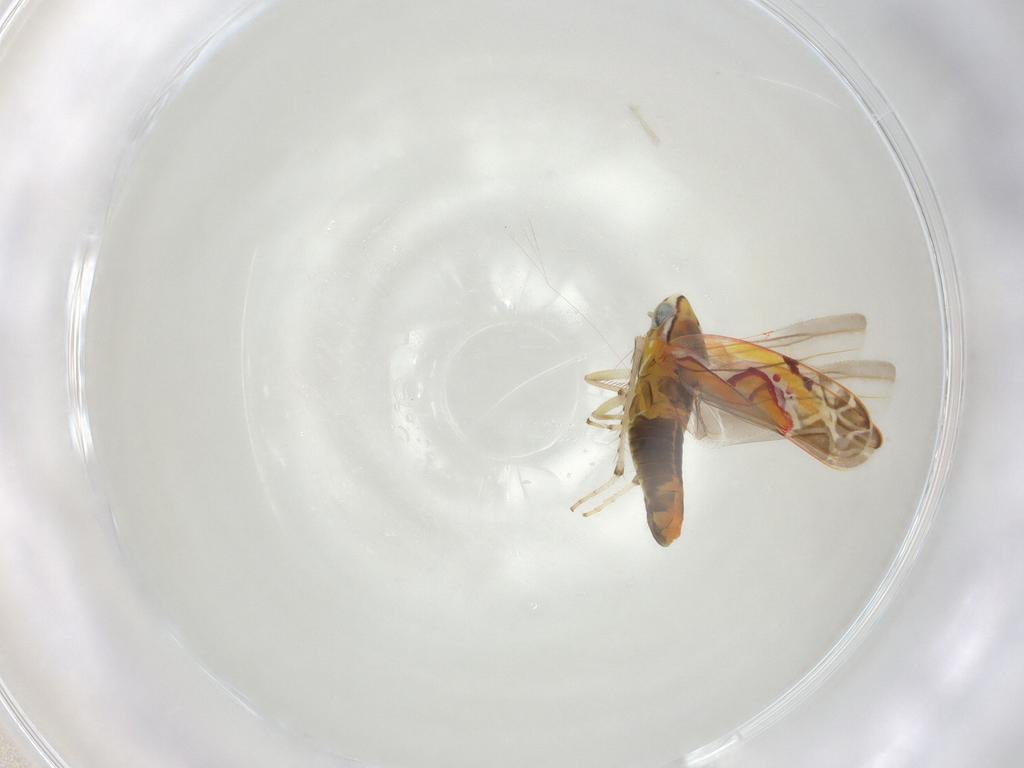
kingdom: Animalia
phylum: Arthropoda
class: Insecta
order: Hemiptera
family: Cicadellidae
